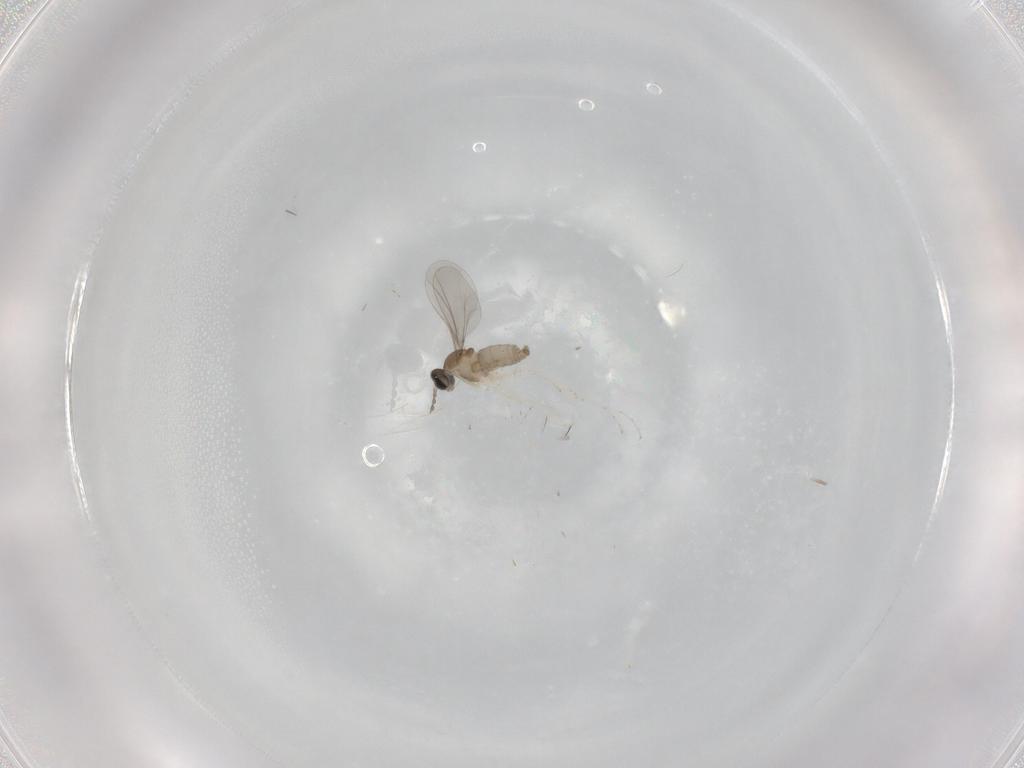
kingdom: Animalia
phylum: Arthropoda
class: Insecta
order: Diptera
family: Cecidomyiidae
